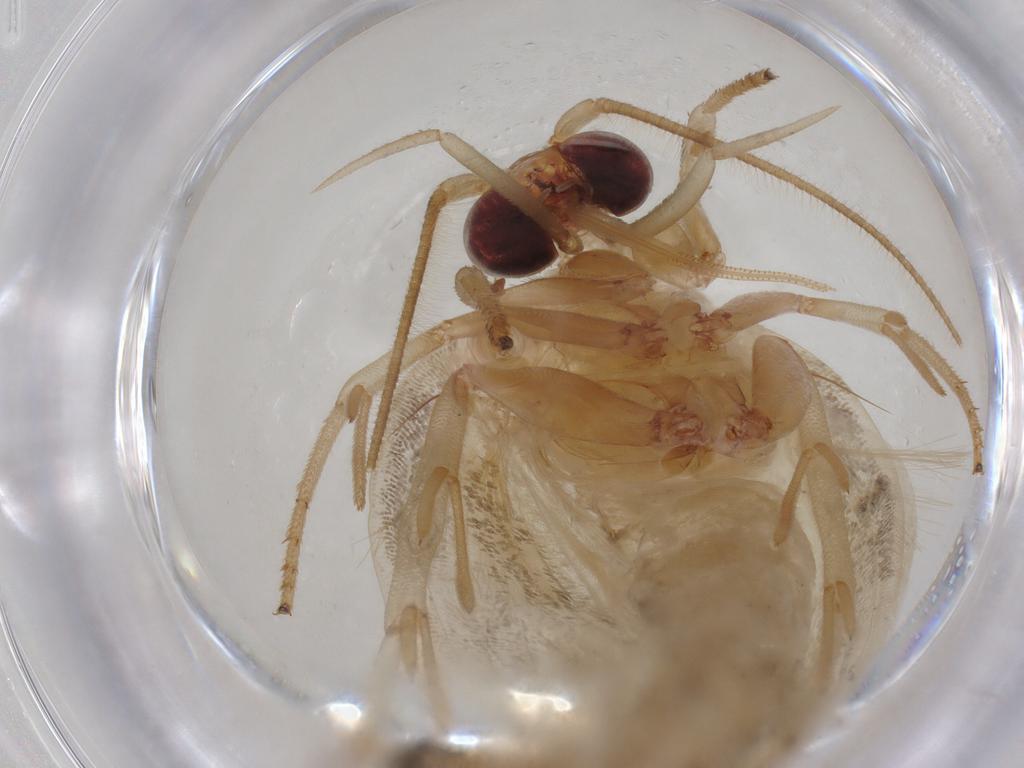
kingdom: Animalia
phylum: Arthropoda
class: Insecta
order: Lepidoptera
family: Depressariidae
